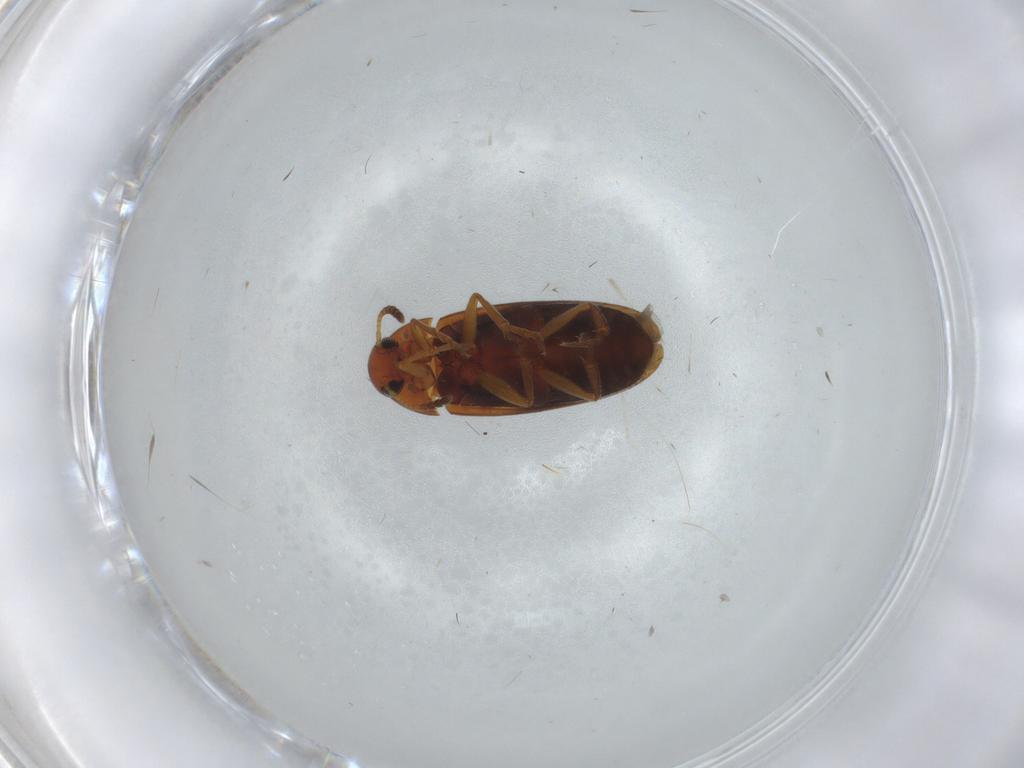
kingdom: Animalia
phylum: Arthropoda
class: Insecta
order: Coleoptera
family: Scraptiidae
